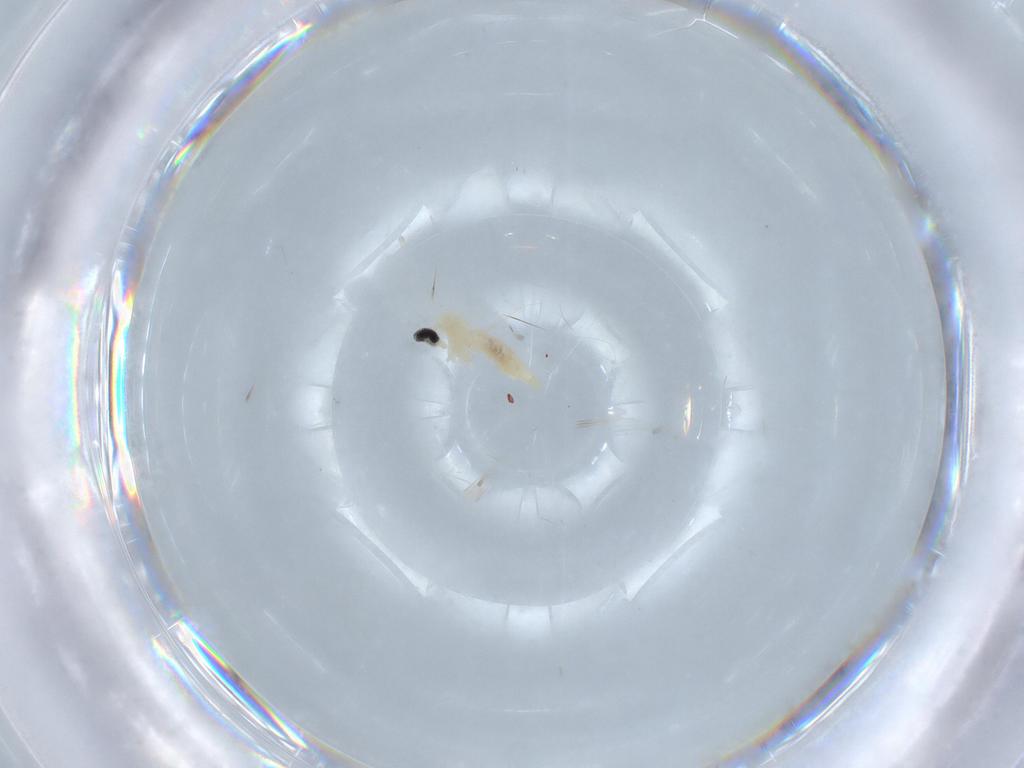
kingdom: Animalia
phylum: Arthropoda
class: Insecta
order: Diptera
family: Cecidomyiidae
